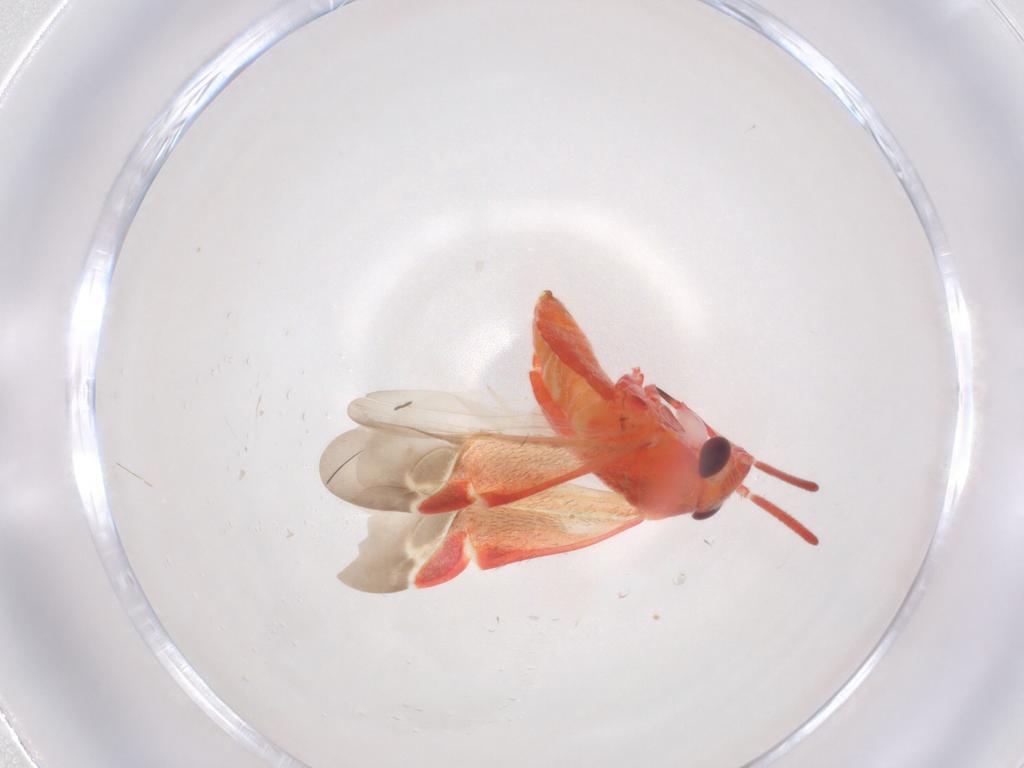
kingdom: Animalia
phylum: Arthropoda
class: Insecta
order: Hemiptera
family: Miridae
